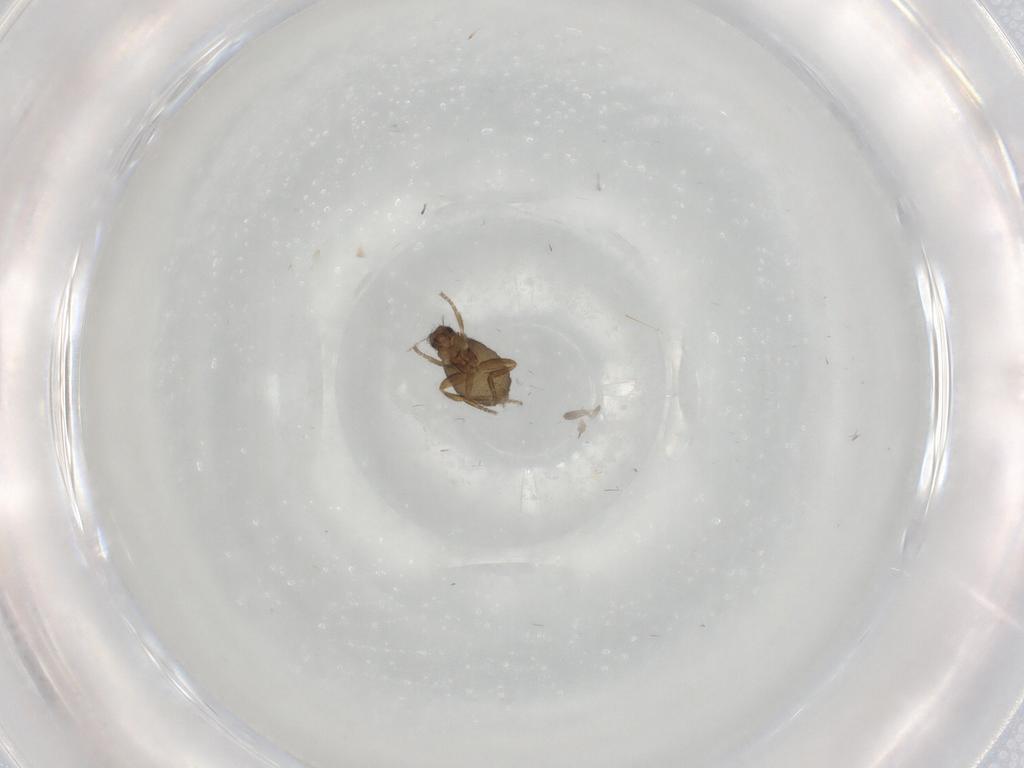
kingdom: Animalia
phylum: Arthropoda
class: Insecta
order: Diptera
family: Phoridae
